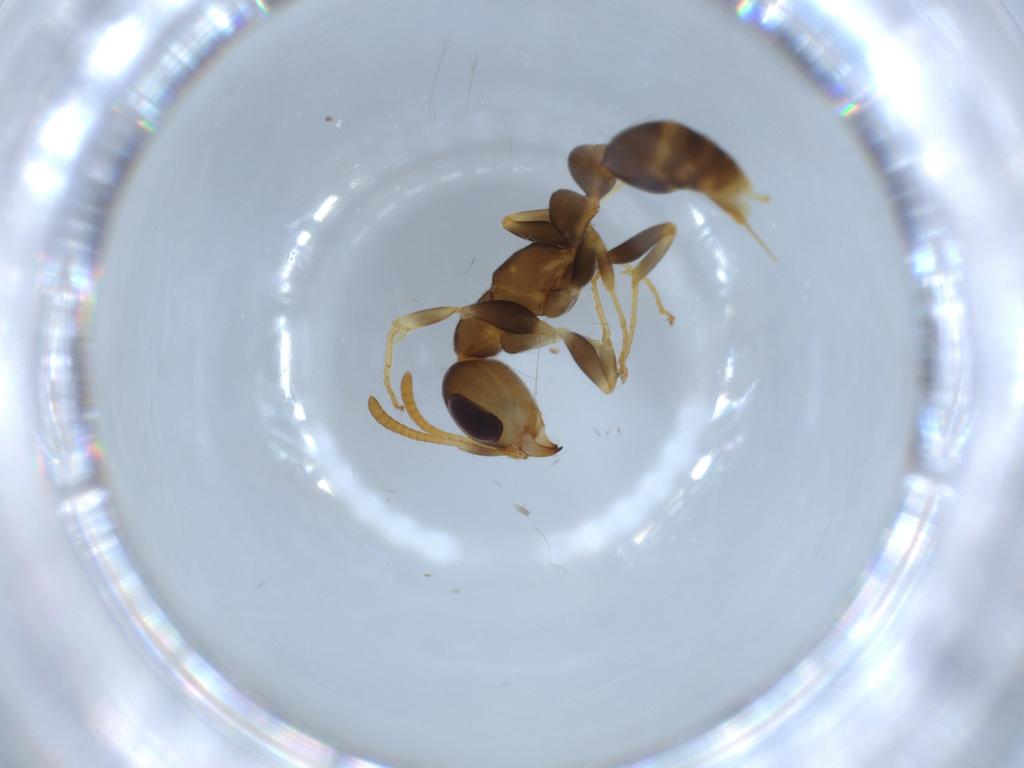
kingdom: Animalia
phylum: Arthropoda
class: Insecta
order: Hymenoptera
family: Formicidae
